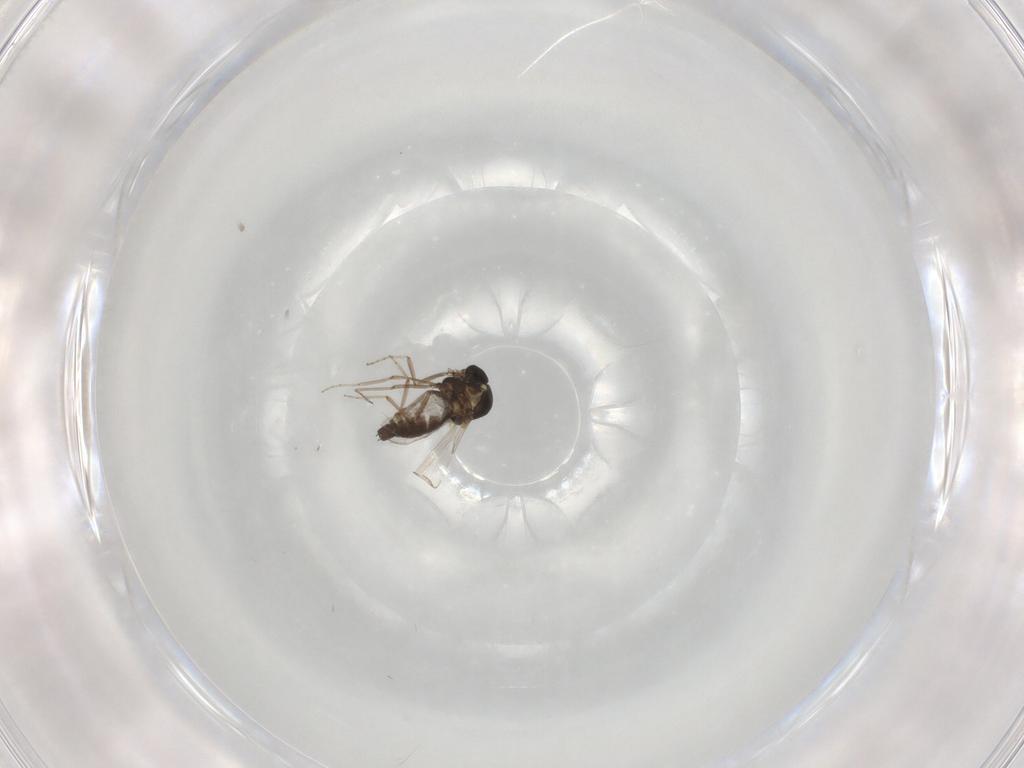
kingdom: Animalia
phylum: Arthropoda
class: Insecta
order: Diptera
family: Ceratopogonidae
